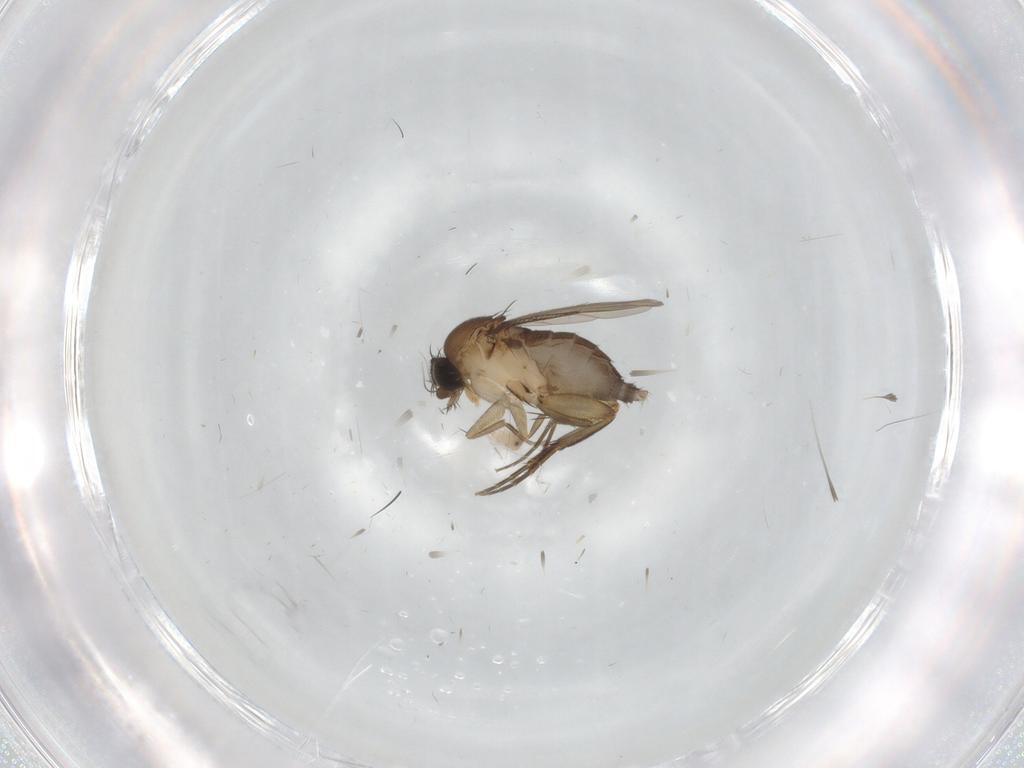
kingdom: Animalia
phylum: Arthropoda
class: Insecta
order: Diptera
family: Phoridae
